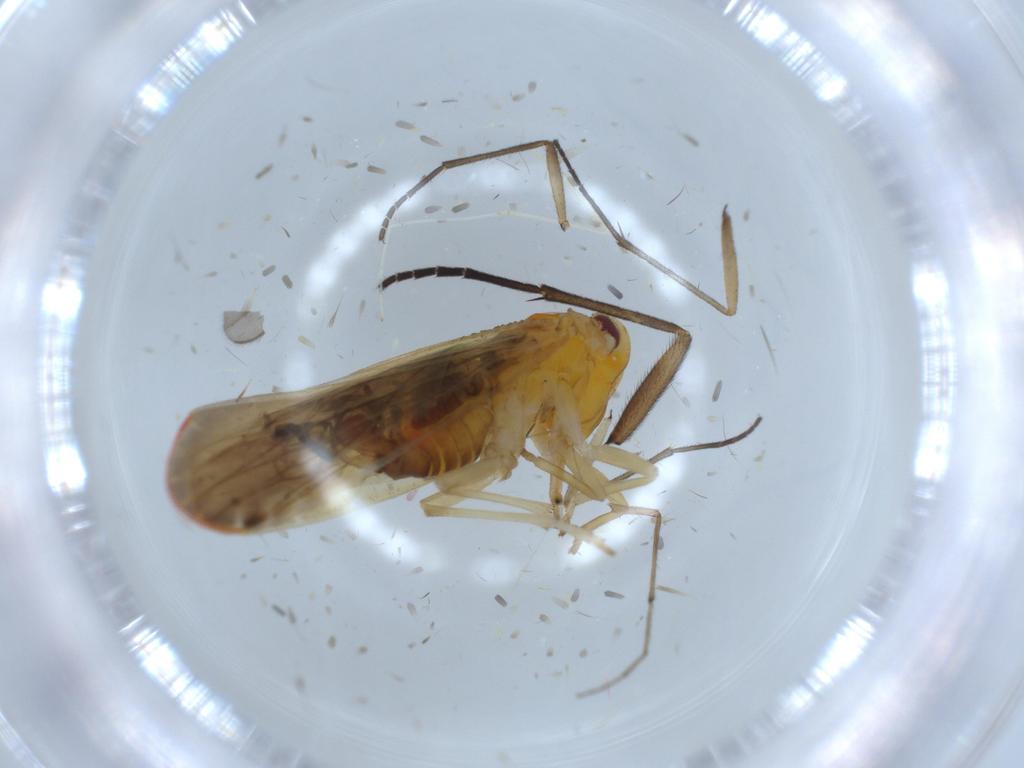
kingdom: Animalia
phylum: Arthropoda
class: Insecta
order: Hemiptera
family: Derbidae
